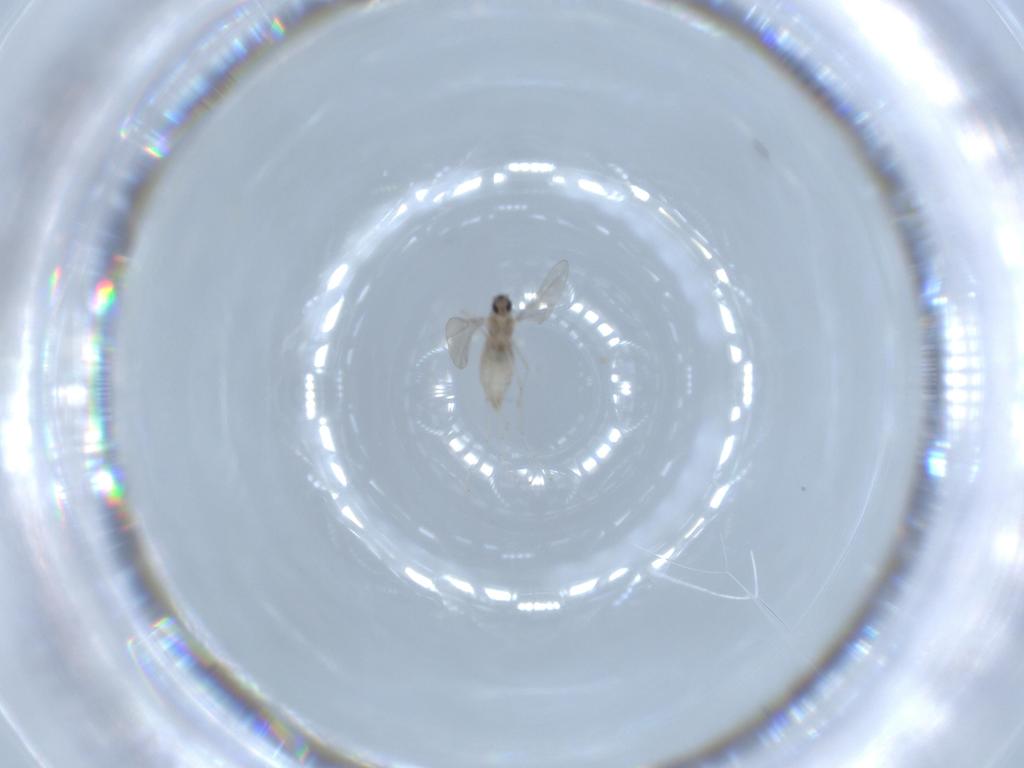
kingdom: Animalia
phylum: Arthropoda
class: Insecta
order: Diptera
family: Cecidomyiidae
